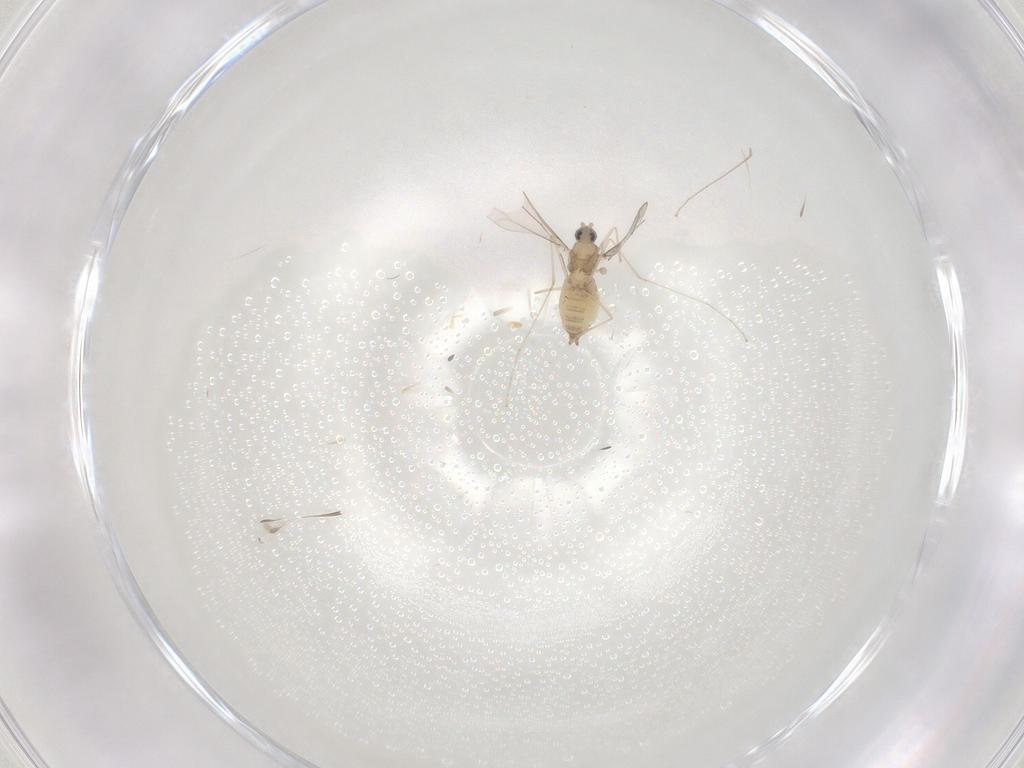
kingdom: Animalia
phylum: Arthropoda
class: Insecta
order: Diptera
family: Cecidomyiidae
